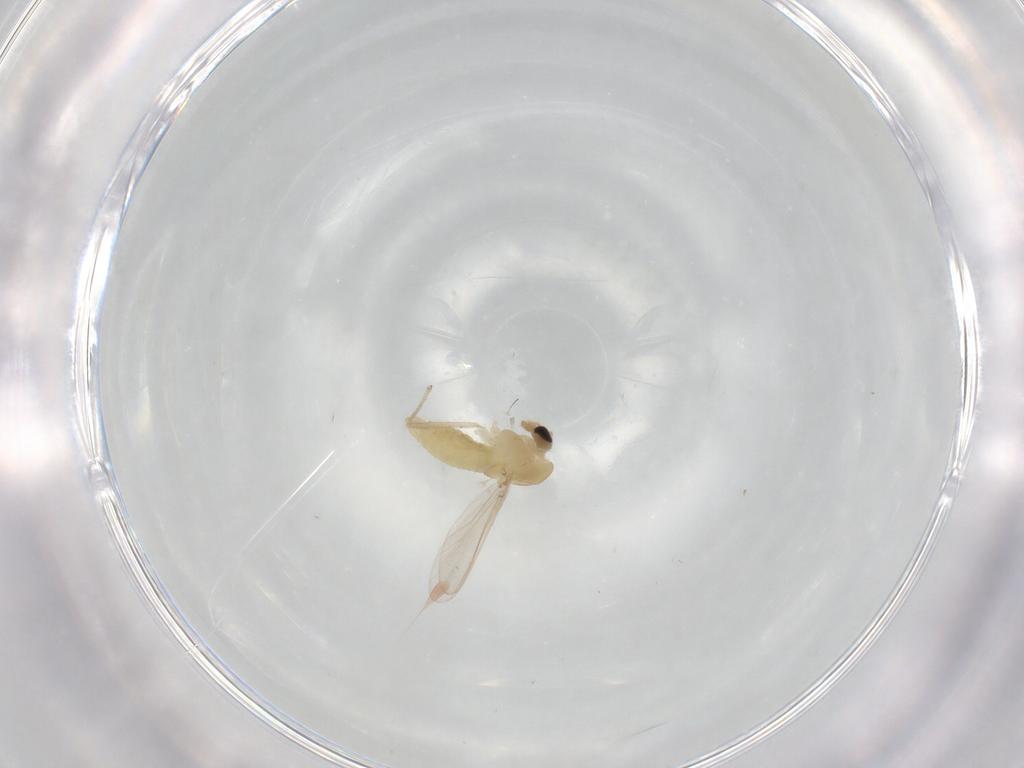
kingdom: Animalia
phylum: Arthropoda
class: Insecta
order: Diptera
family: Chironomidae
